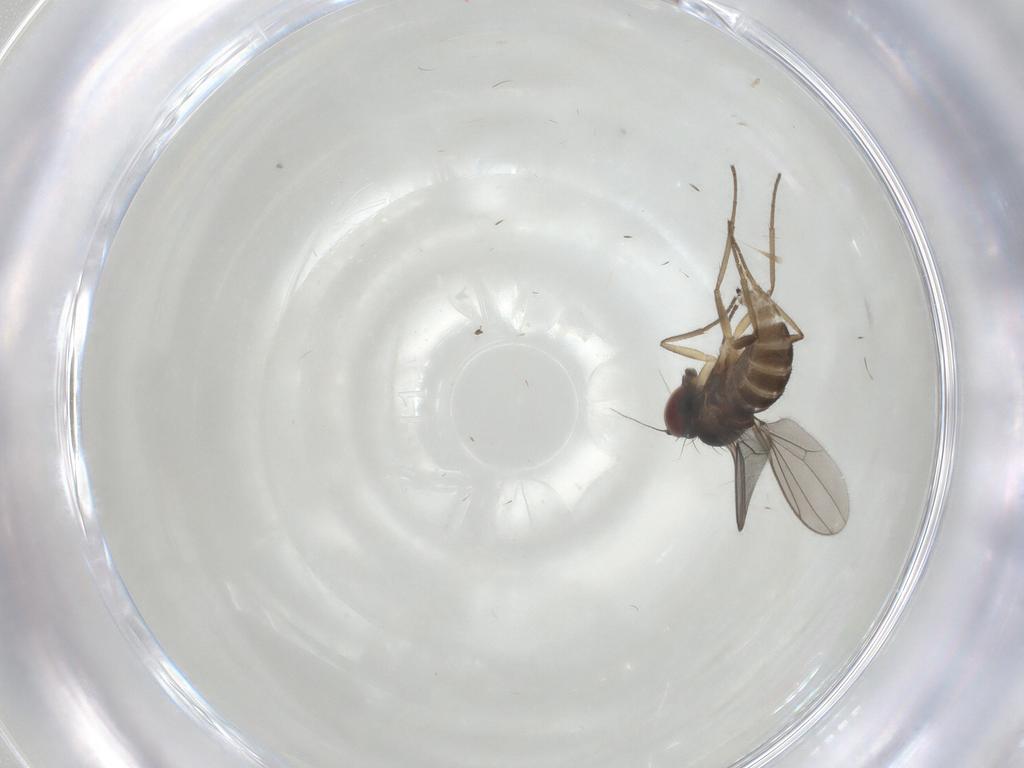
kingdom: Animalia
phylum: Arthropoda
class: Insecta
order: Diptera
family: Cecidomyiidae
